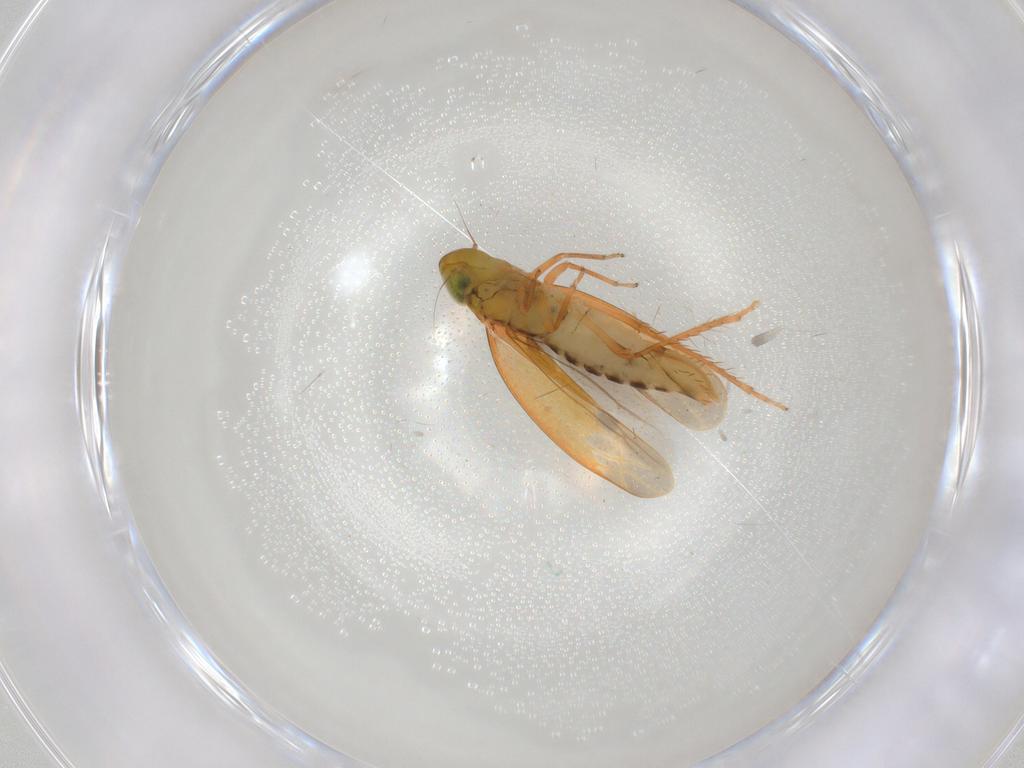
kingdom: Animalia
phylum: Arthropoda
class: Insecta
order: Hemiptera
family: Cicadellidae
